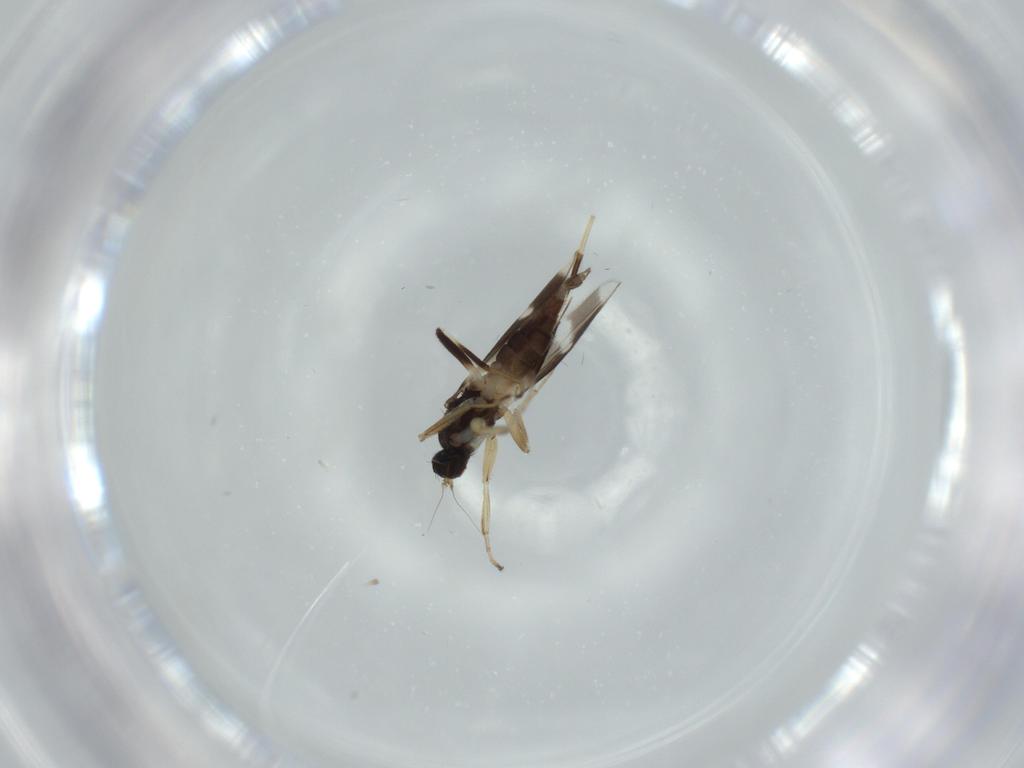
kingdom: Animalia
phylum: Arthropoda
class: Insecta
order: Diptera
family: Hybotidae
